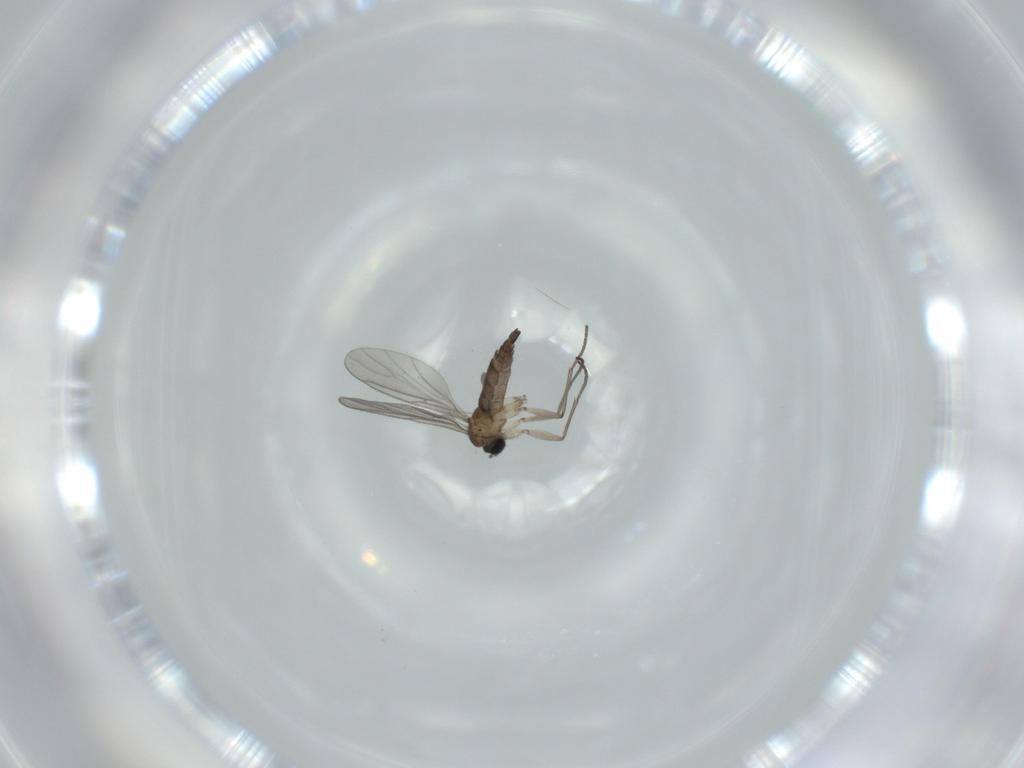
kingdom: Animalia
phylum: Arthropoda
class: Insecta
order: Diptera
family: Sciaridae
